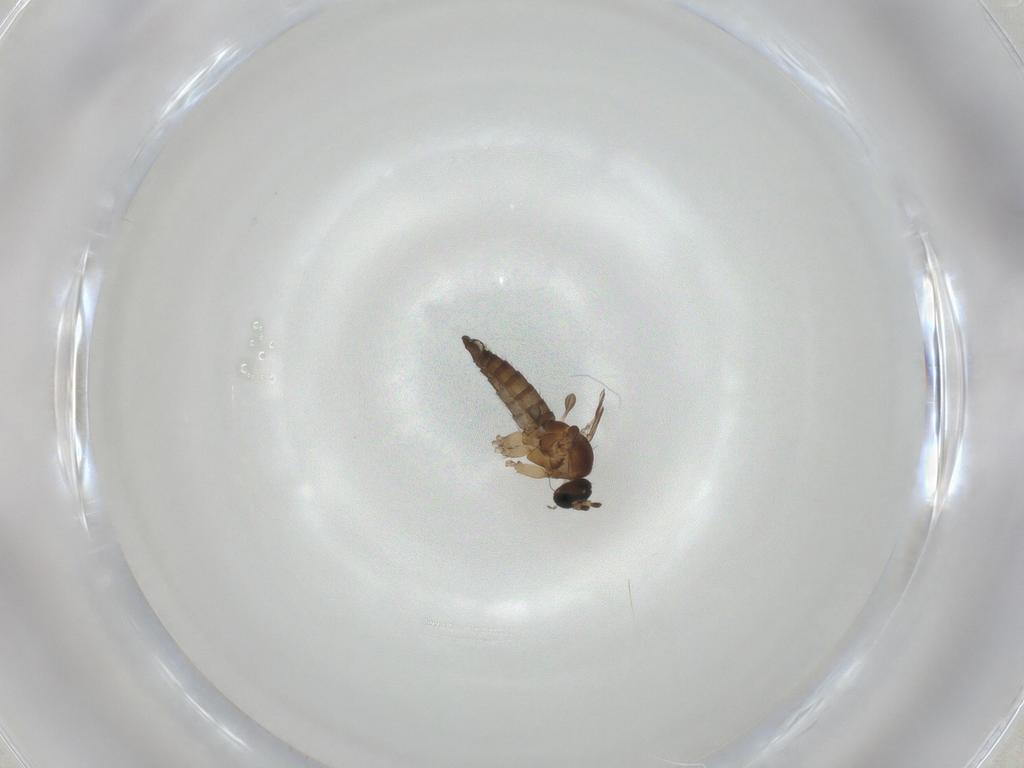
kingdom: Animalia
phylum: Arthropoda
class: Insecta
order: Diptera
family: Sciaridae
